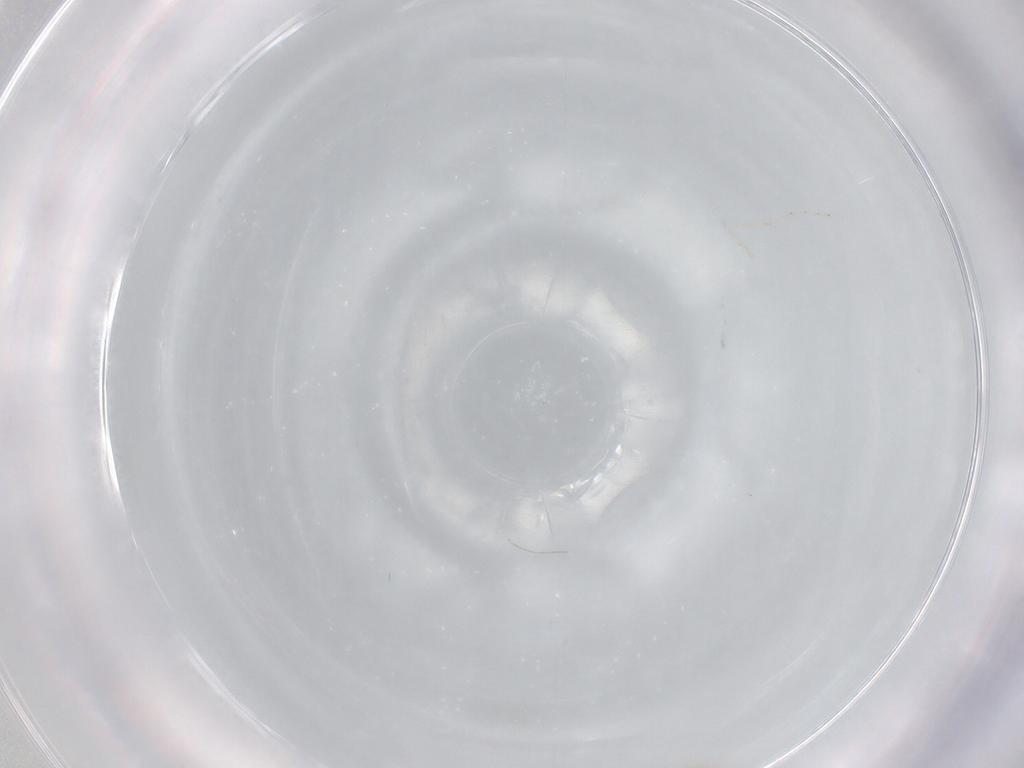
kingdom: Animalia
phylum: Arthropoda
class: Insecta
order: Diptera
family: Cecidomyiidae
